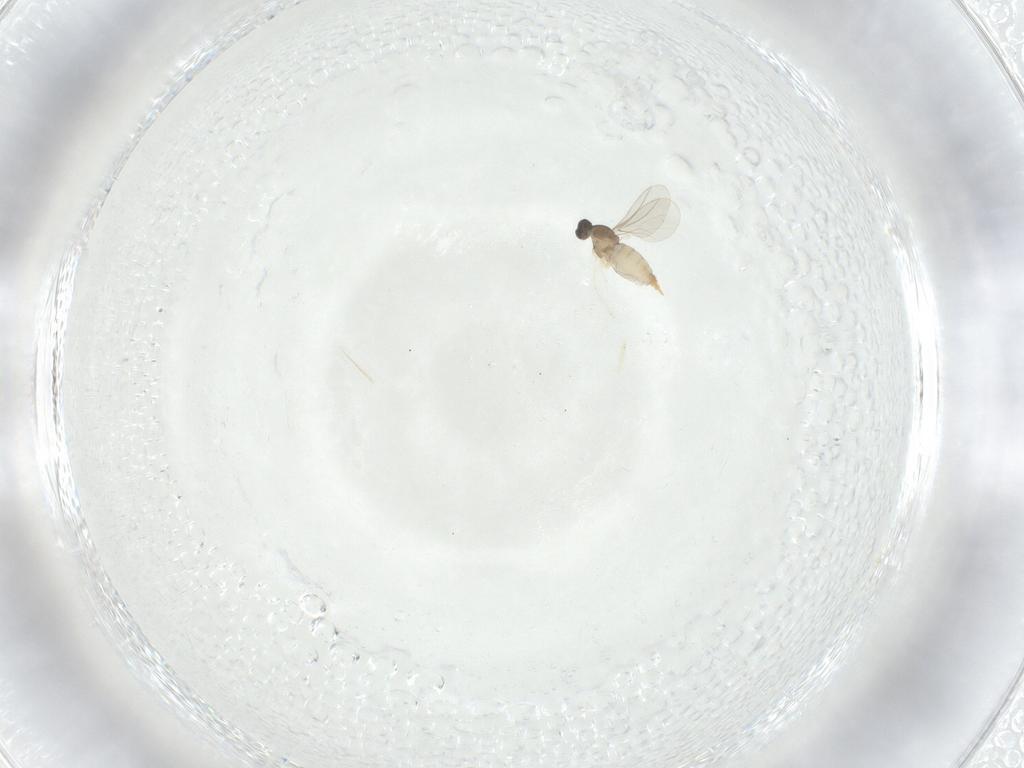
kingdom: Animalia
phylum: Arthropoda
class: Insecta
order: Diptera
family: Cecidomyiidae
